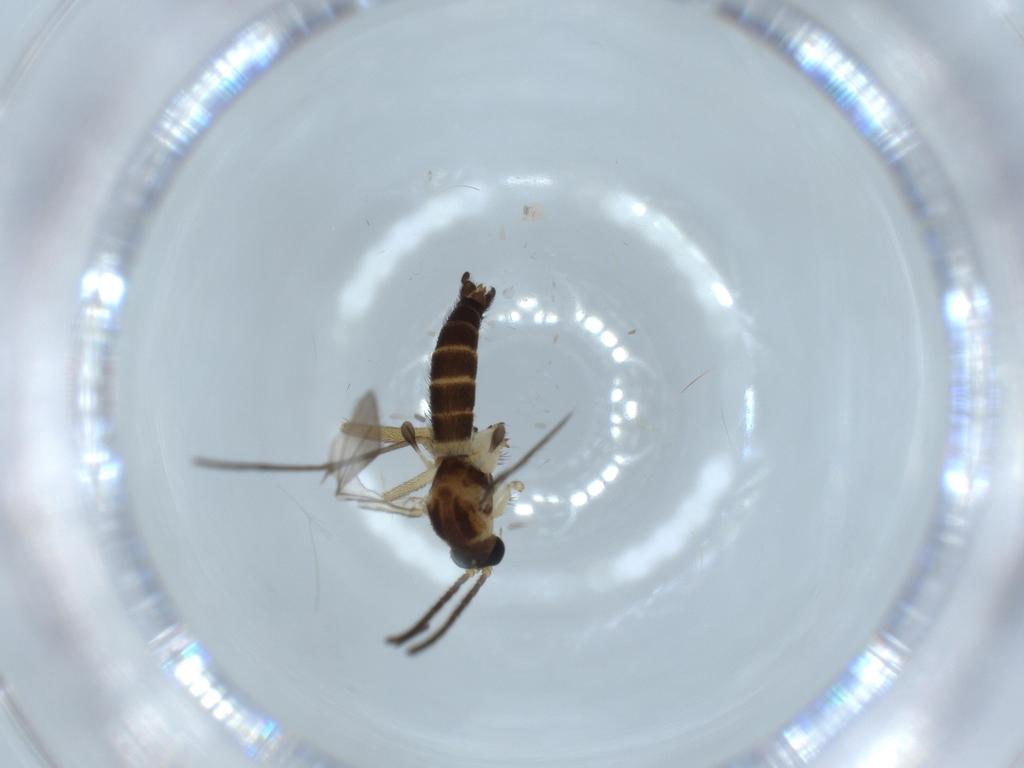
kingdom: Animalia
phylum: Arthropoda
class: Insecta
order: Diptera
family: Sciaridae
